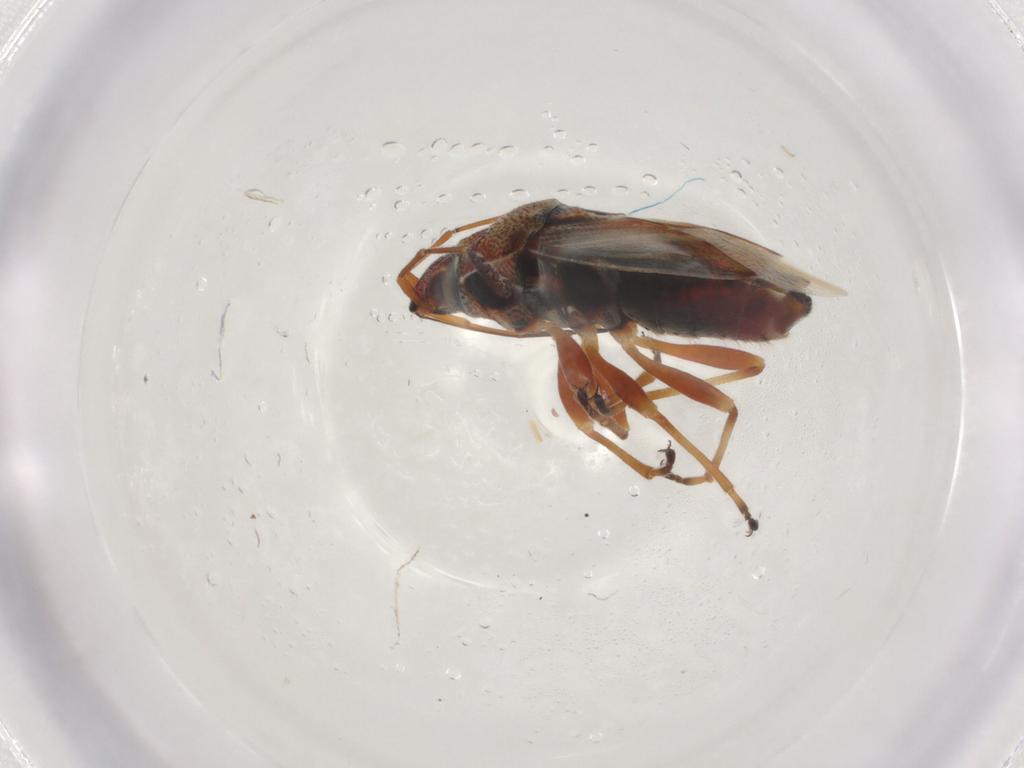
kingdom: Animalia
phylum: Arthropoda
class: Insecta
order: Hemiptera
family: Lygaeidae
